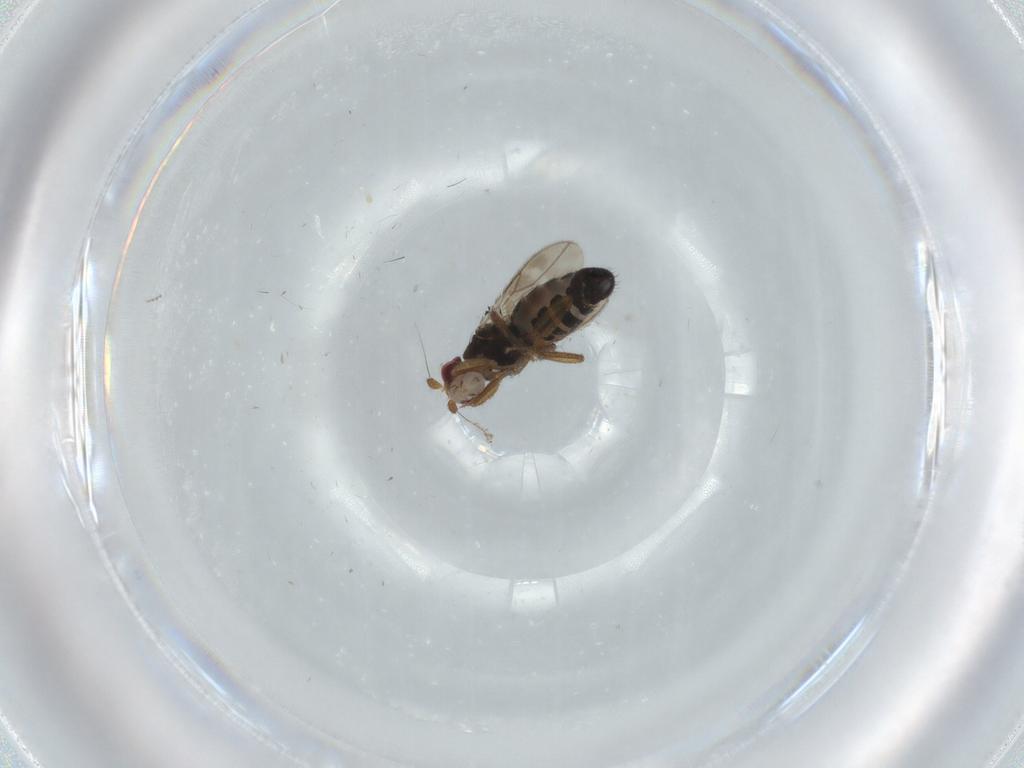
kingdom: Animalia
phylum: Arthropoda
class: Insecta
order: Diptera
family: Sphaeroceridae
